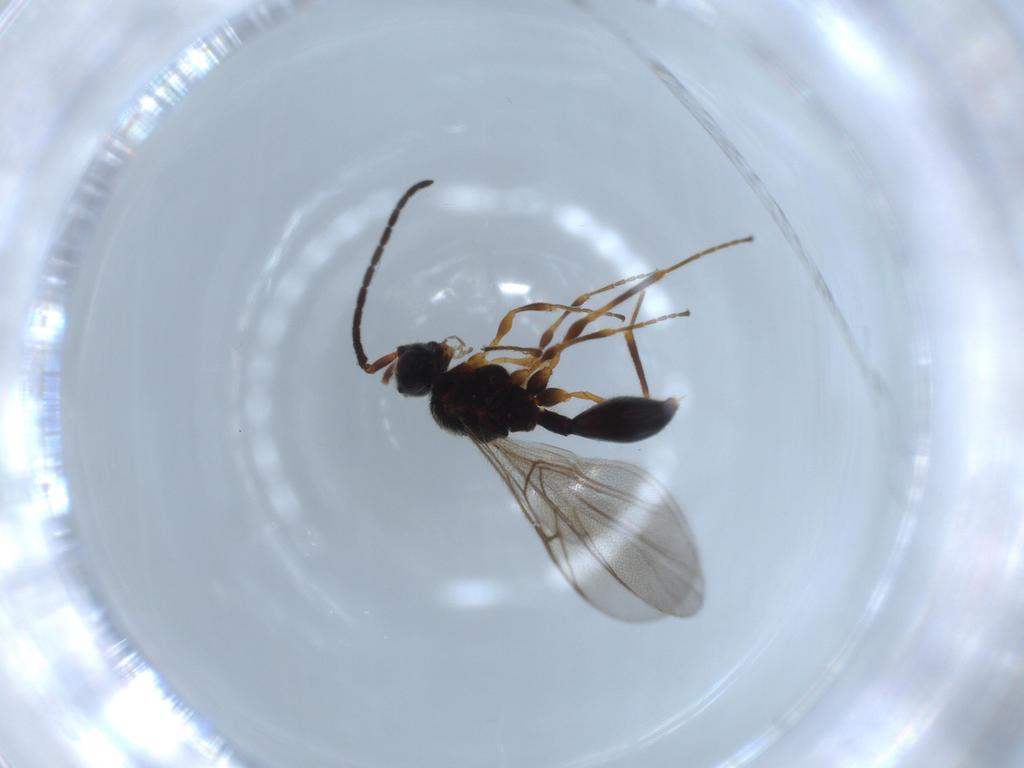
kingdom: Animalia
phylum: Arthropoda
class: Insecta
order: Hymenoptera
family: Diapriidae
